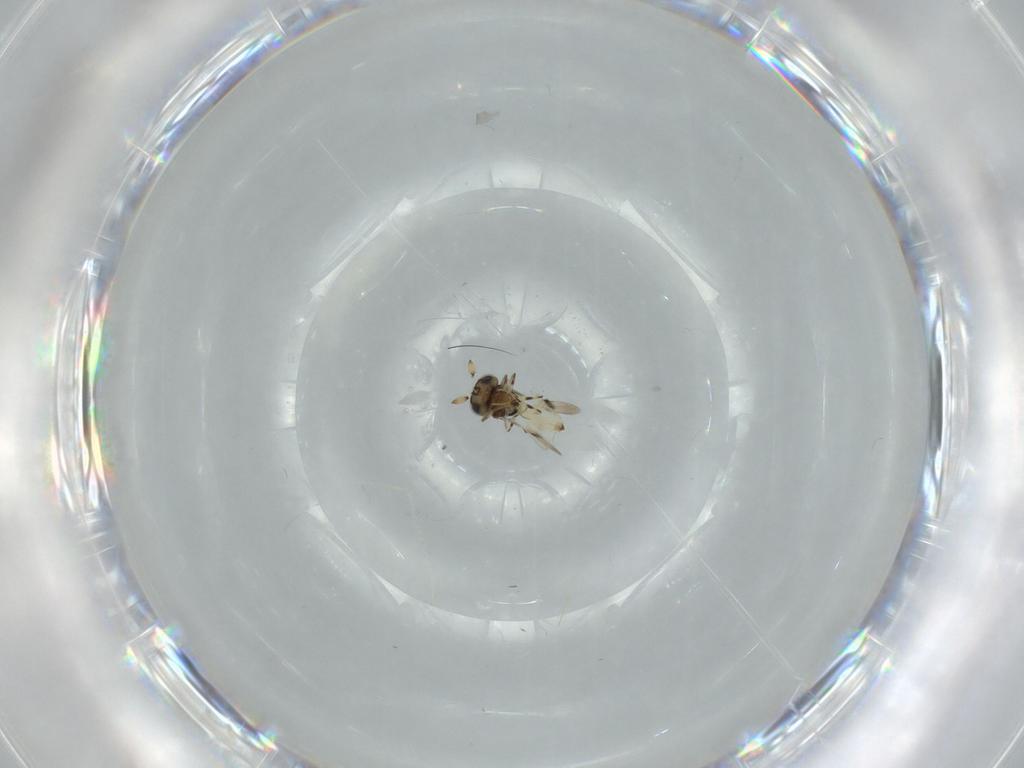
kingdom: Animalia
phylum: Arthropoda
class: Insecta
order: Hymenoptera
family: Scelionidae
